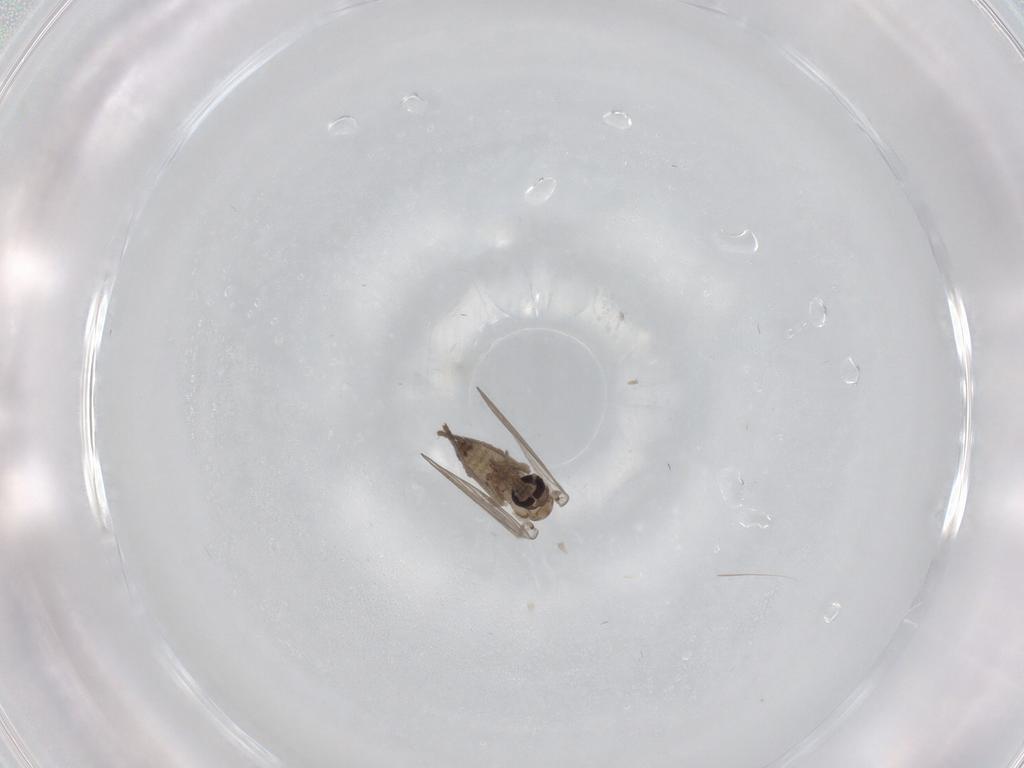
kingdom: Animalia
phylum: Arthropoda
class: Insecta
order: Diptera
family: Psychodidae
